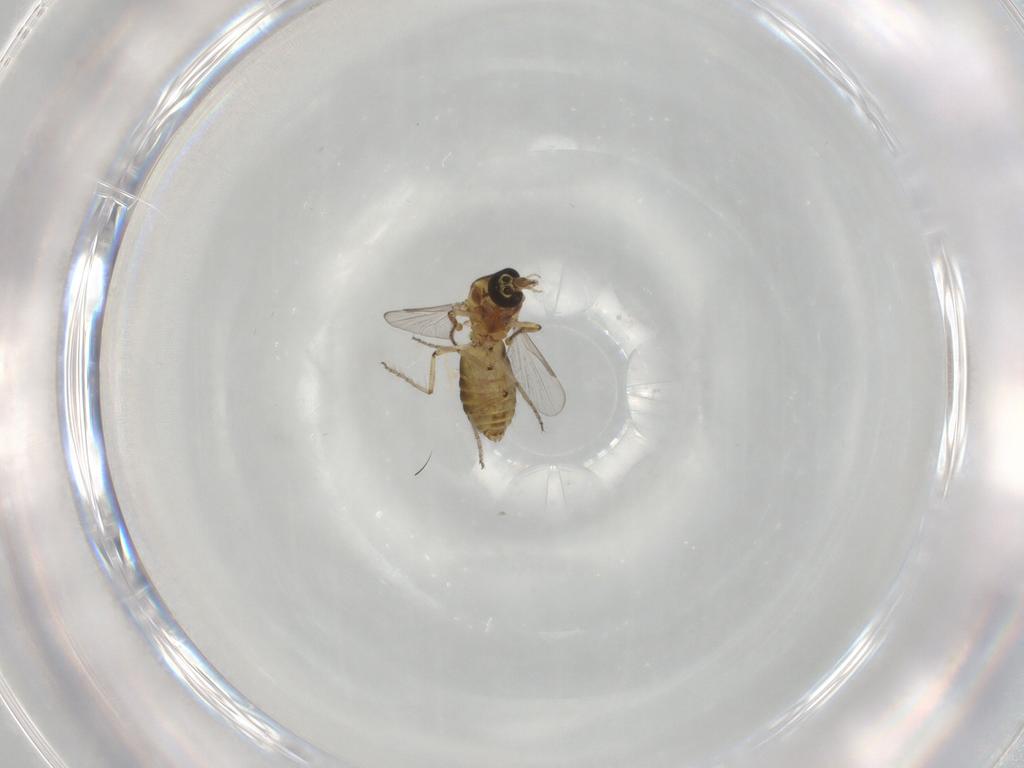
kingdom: Animalia
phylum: Arthropoda
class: Insecta
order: Diptera
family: Ceratopogonidae
